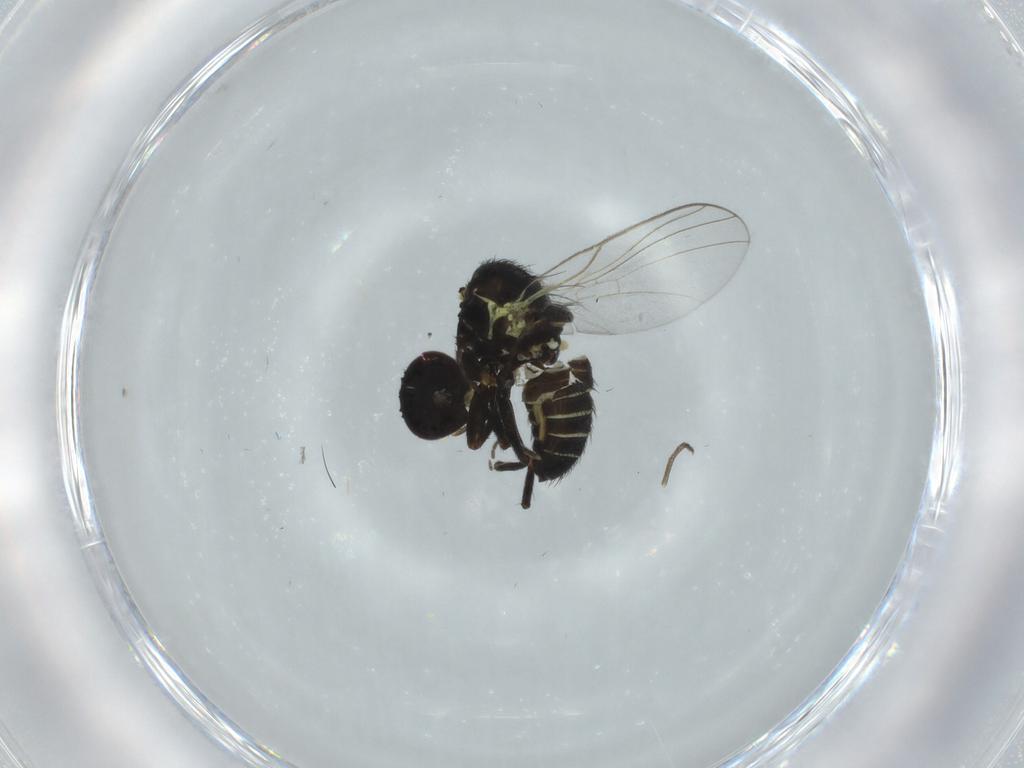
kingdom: Animalia
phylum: Arthropoda
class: Insecta
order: Diptera
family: Agromyzidae
